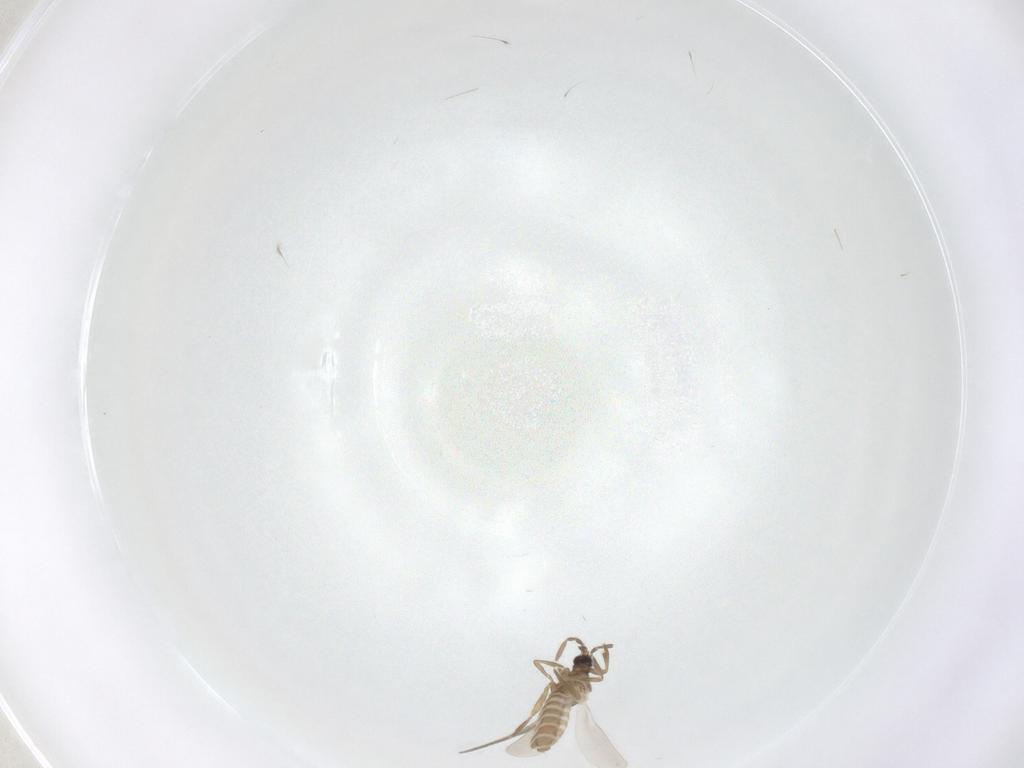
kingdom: Animalia
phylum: Arthropoda
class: Insecta
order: Hemiptera
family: Enicocephalidae
